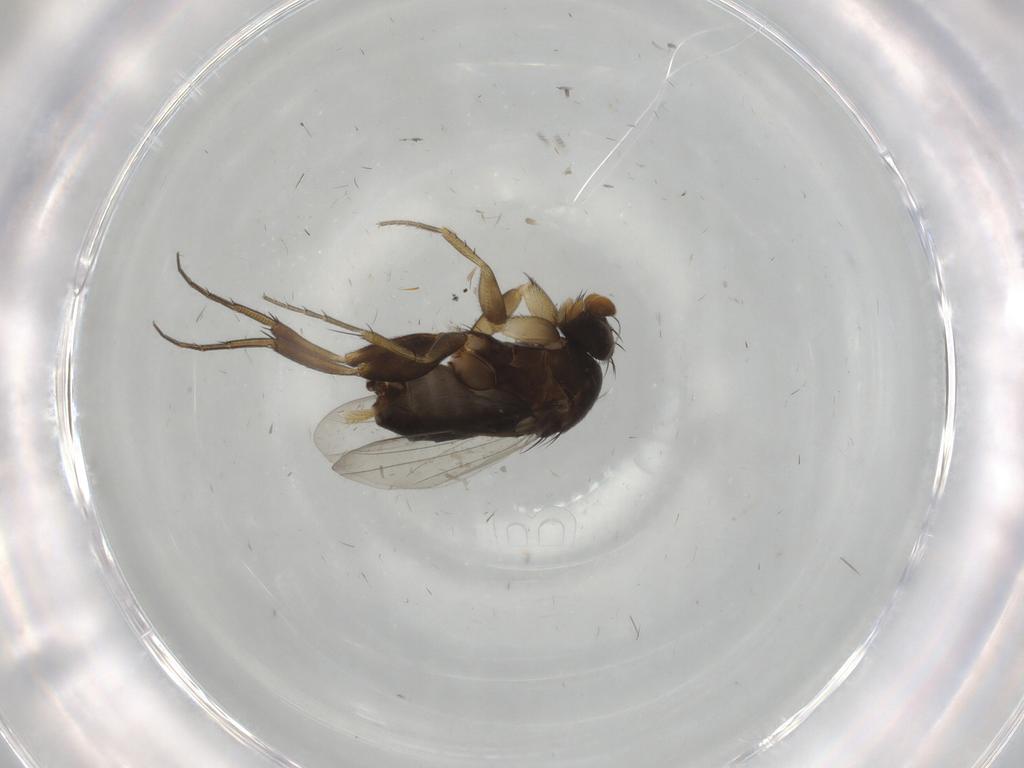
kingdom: Animalia
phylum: Arthropoda
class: Insecta
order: Diptera
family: Phoridae
